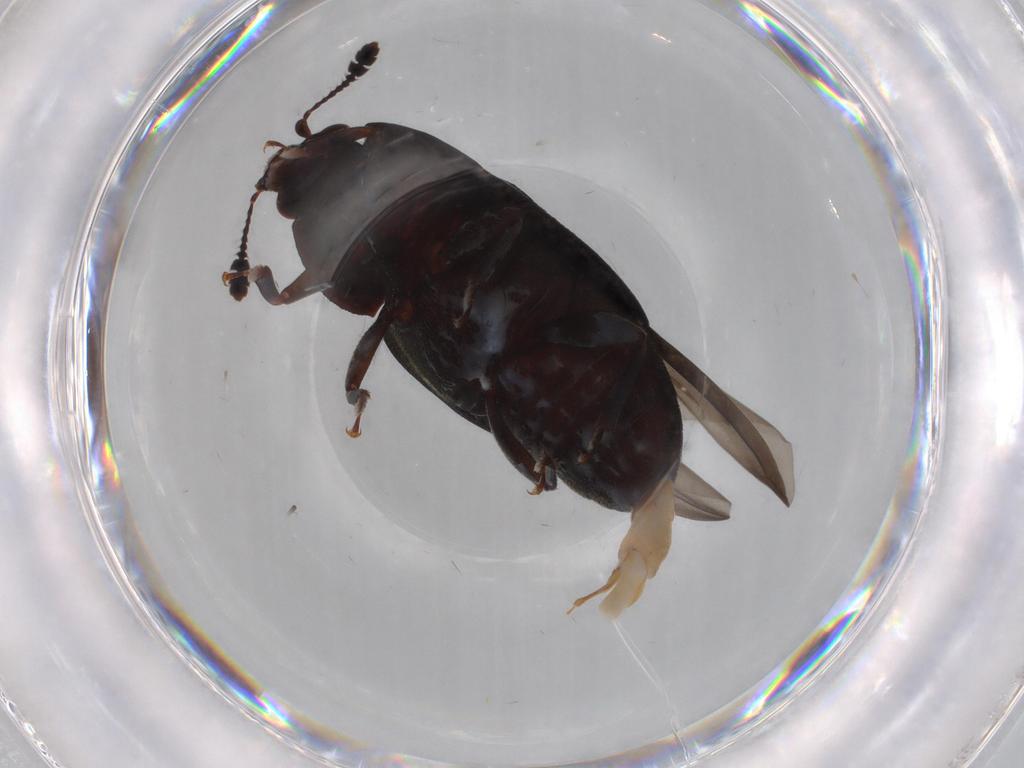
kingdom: Animalia
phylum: Arthropoda
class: Insecta
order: Coleoptera
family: Nitidulidae
